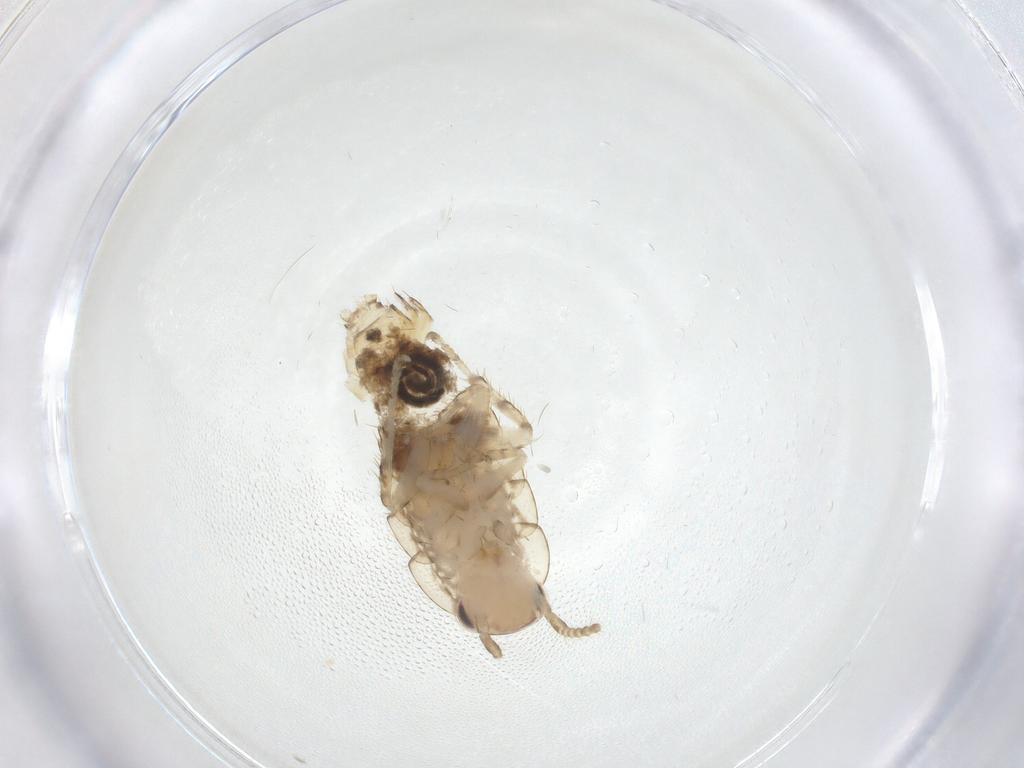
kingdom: Animalia
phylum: Arthropoda
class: Insecta
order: Blattodea
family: Ectobiidae
